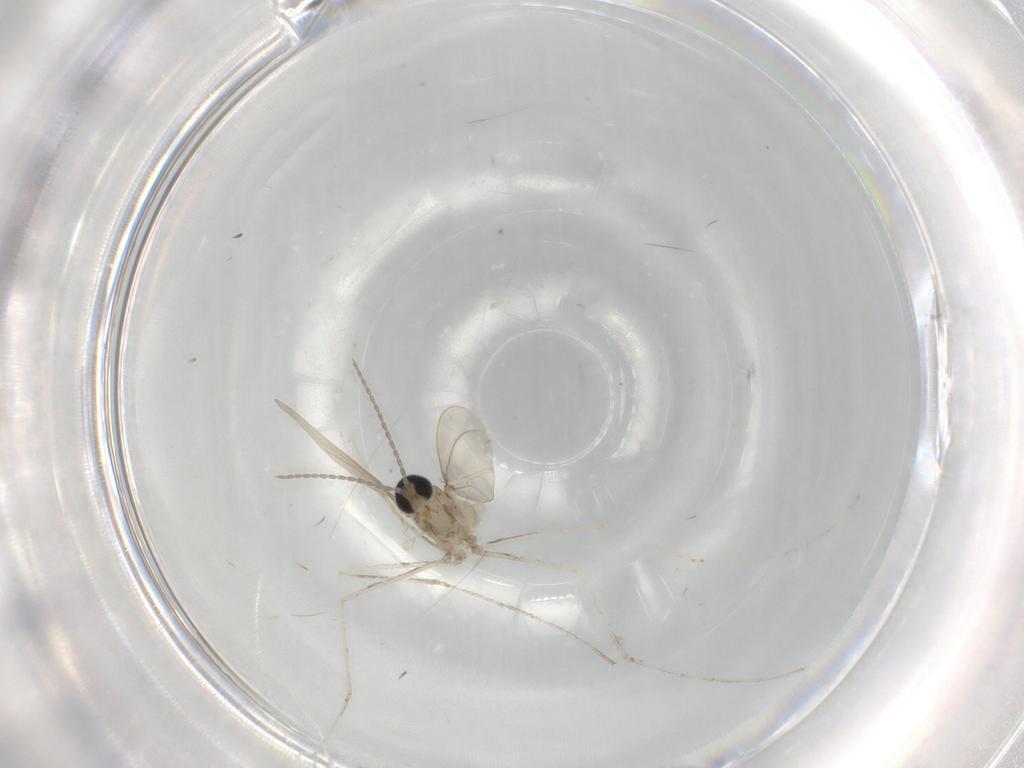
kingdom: Animalia
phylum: Arthropoda
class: Insecta
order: Diptera
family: Cecidomyiidae
